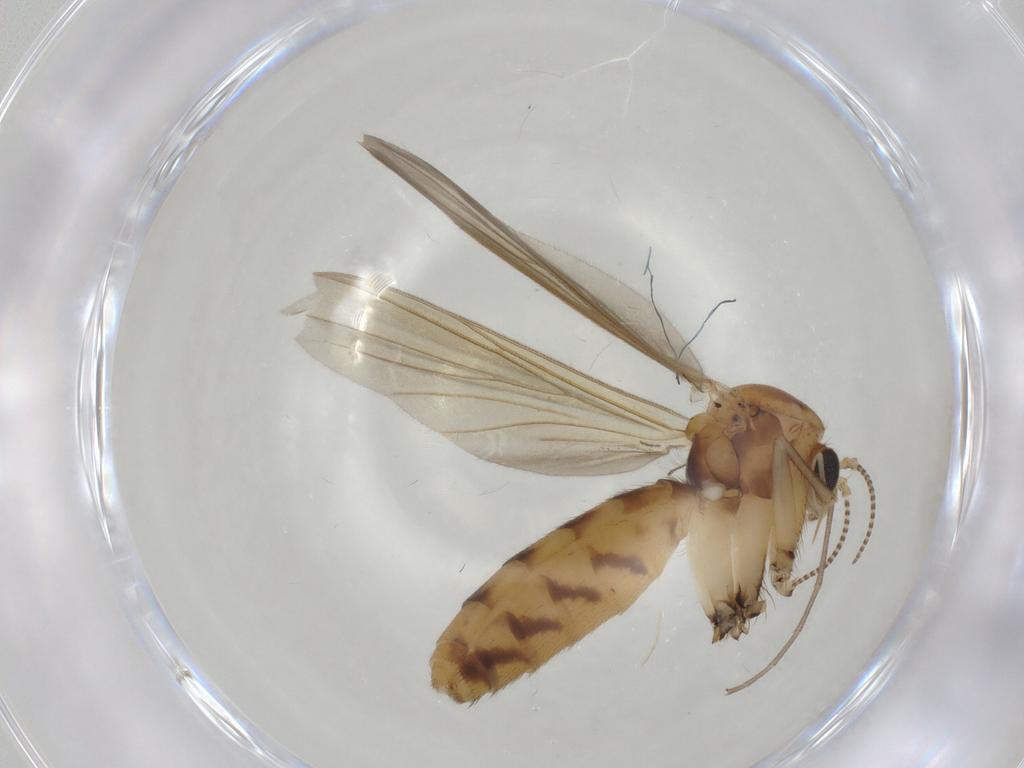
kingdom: Animalia
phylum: Arthropoda
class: Insecta
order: Diptera
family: Mycetophilidae
